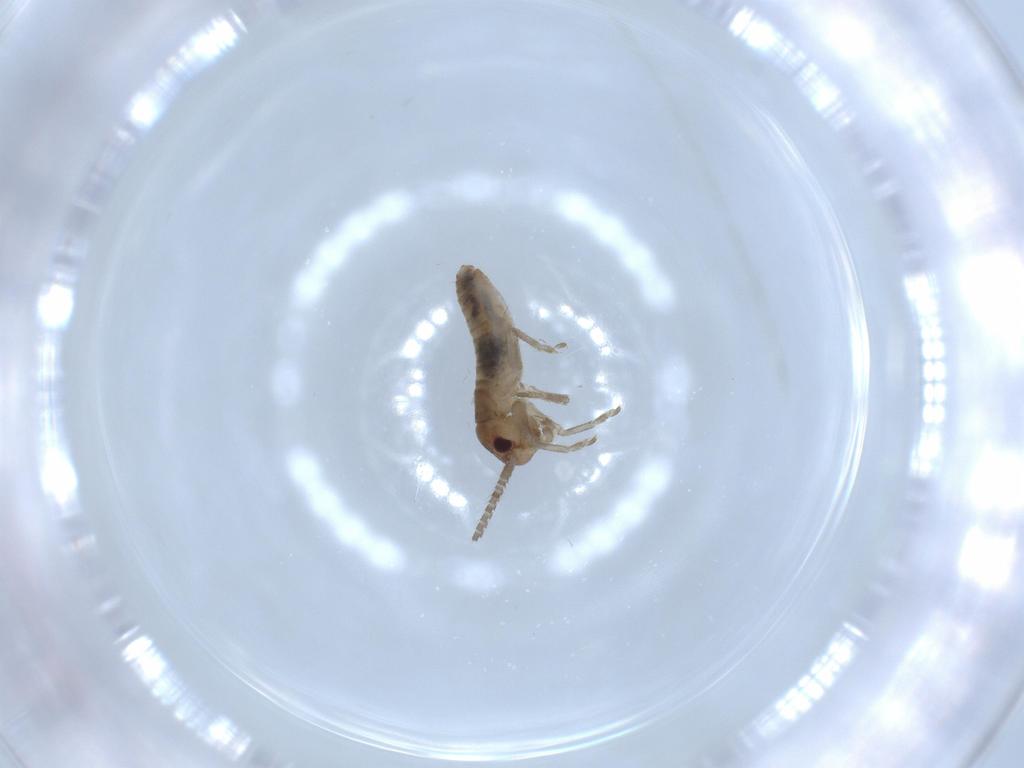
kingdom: Animalia
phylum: Arthropoda
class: Insecta
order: Orthoptera
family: Gryllidae
